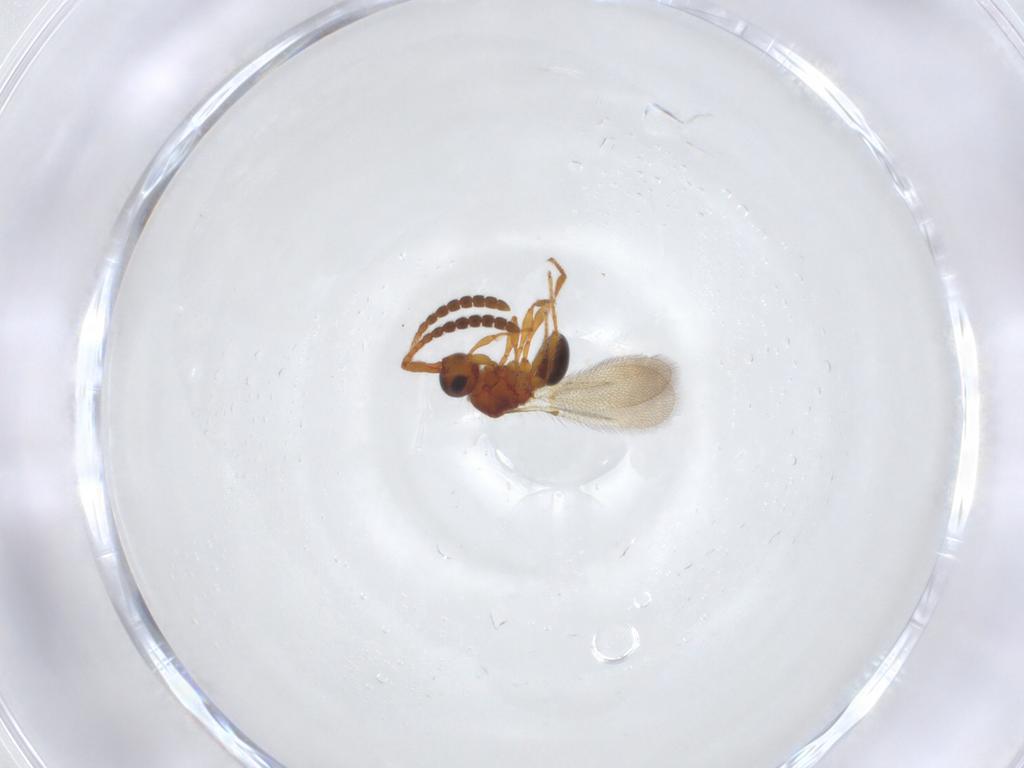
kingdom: Animalia
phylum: Arthropoda
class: Insecta
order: Hymenoptera
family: Diapriidae
